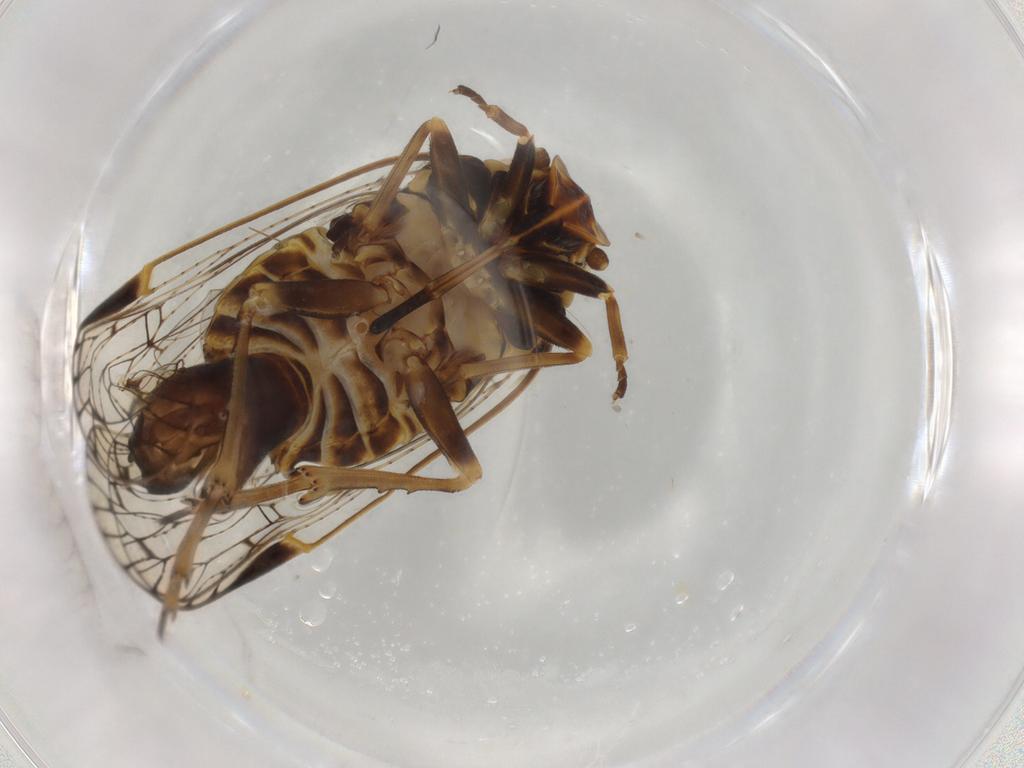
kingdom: Animalia
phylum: Arthropoda
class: Insecta
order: Hemiptera
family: Cixiidae
